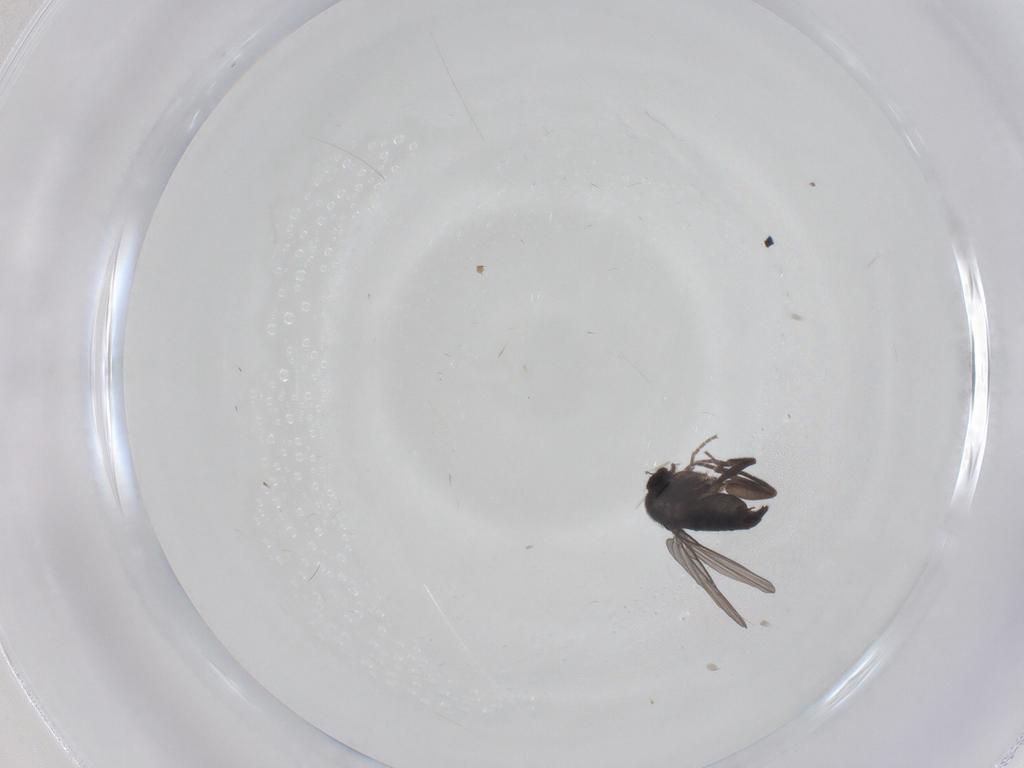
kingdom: Animalia
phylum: Arthropoda
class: Insecta
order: Diptera
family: Phoridae
